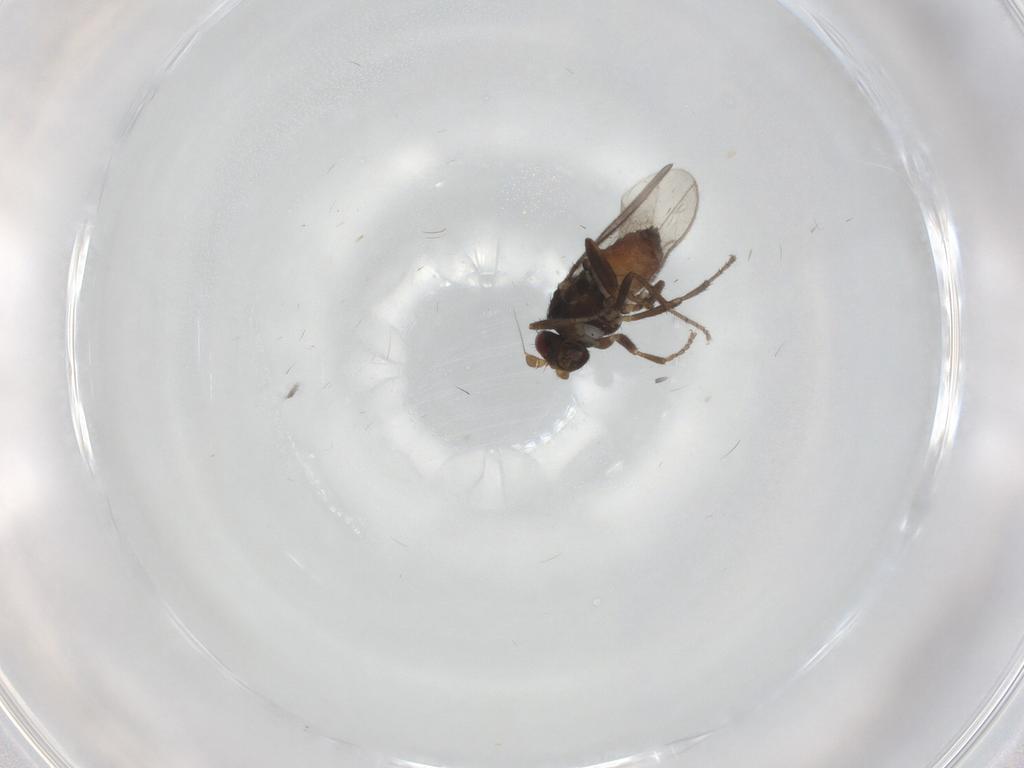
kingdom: Animalia
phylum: Arthropoda
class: Insecta
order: Diptera
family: Sphaeroceridae
